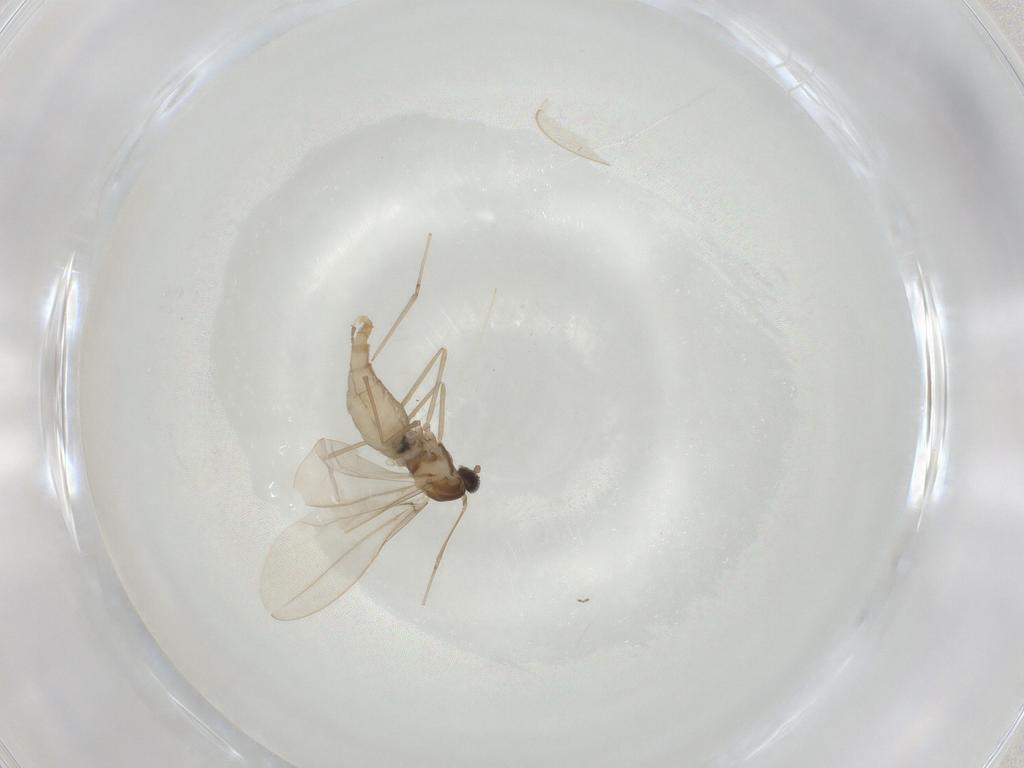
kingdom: Animalia
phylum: Arthropoda
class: Insecta
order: Diptera
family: Cecidomyiidae
